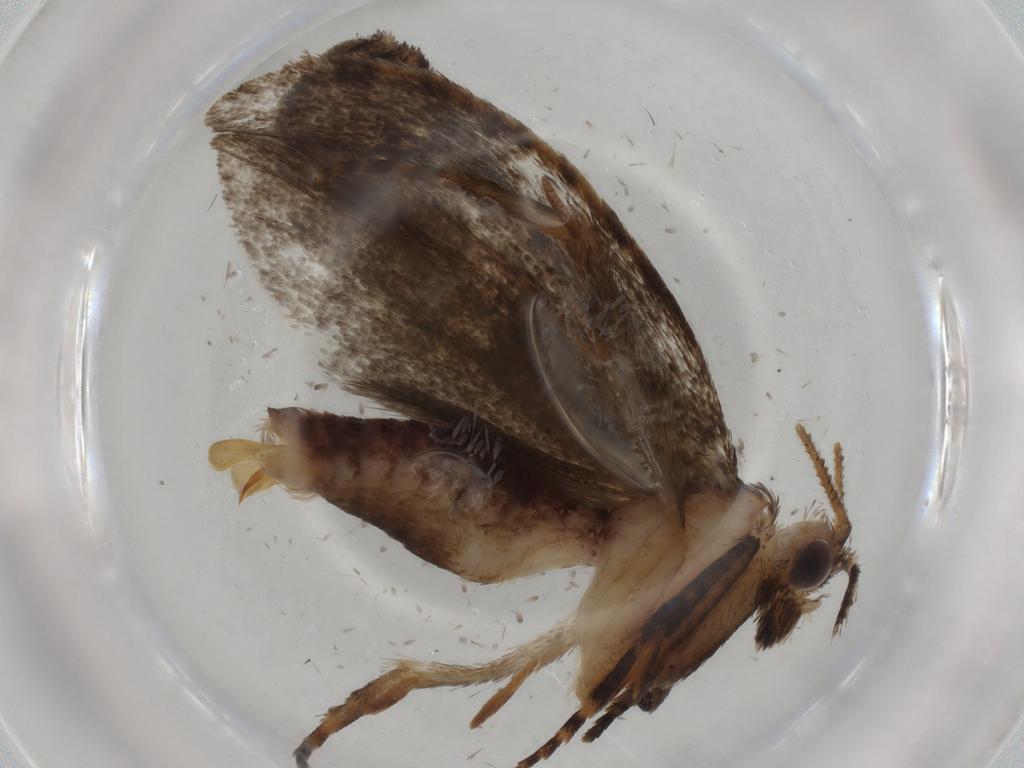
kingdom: Animalia
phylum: Arthropoda
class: Insecta
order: Lepidoptera
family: Tineidae
